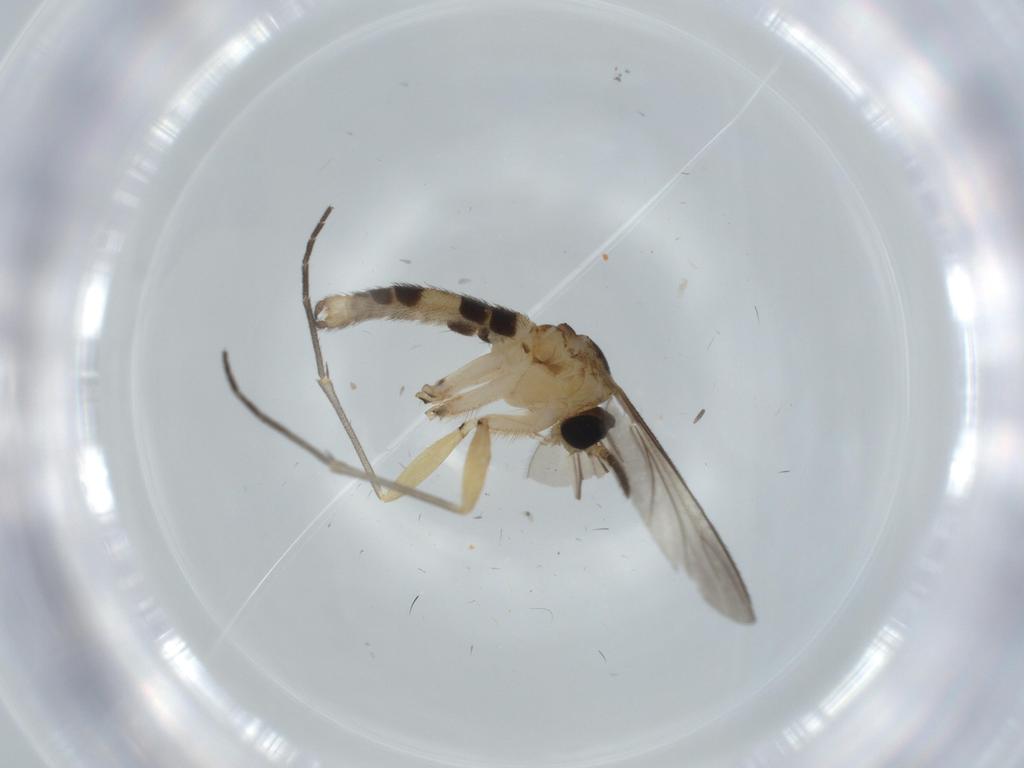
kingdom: Animalia
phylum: Arthropoda
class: Insecta
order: Diptera
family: Sciaridae
